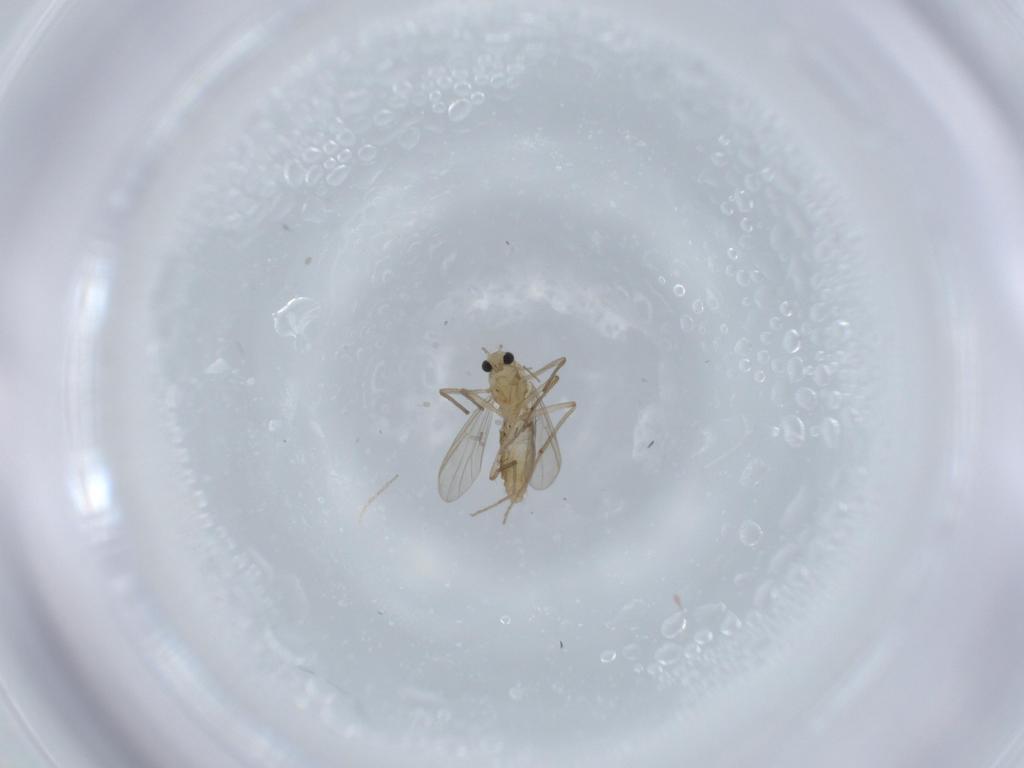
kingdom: Animalia
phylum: Arthropoda
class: Insecta
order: Diptera
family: Chironomidae
